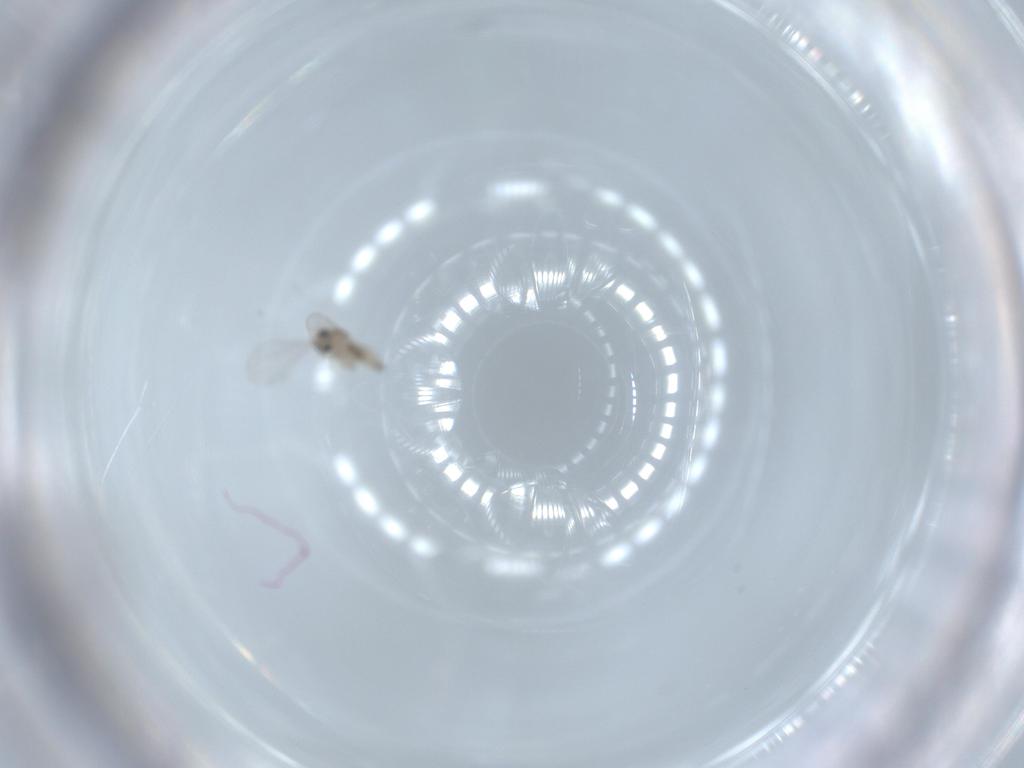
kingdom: Animalia
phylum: Arthropoda
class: Insecta
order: Diptera
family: Cecidomyiidae
